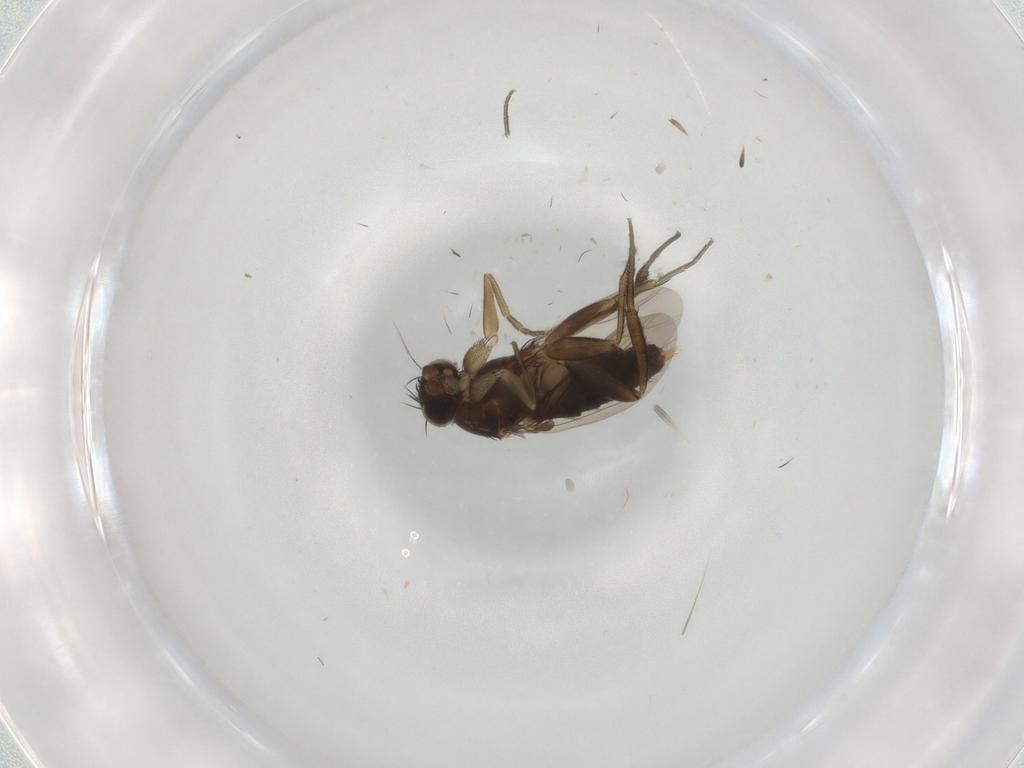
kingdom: Animalia
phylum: Arthropoda
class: Insecta
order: Diptera
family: Phoridae
